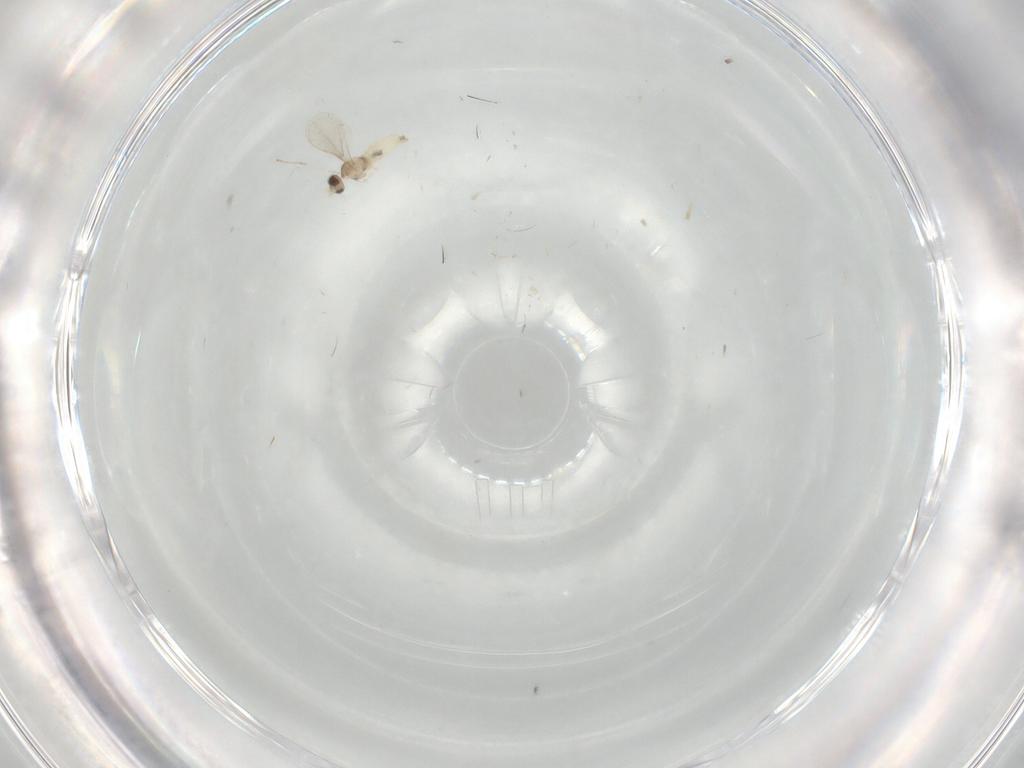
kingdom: Animalia
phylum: Arthropoda
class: Insecta
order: Diptera
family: Cecidomyiidae
